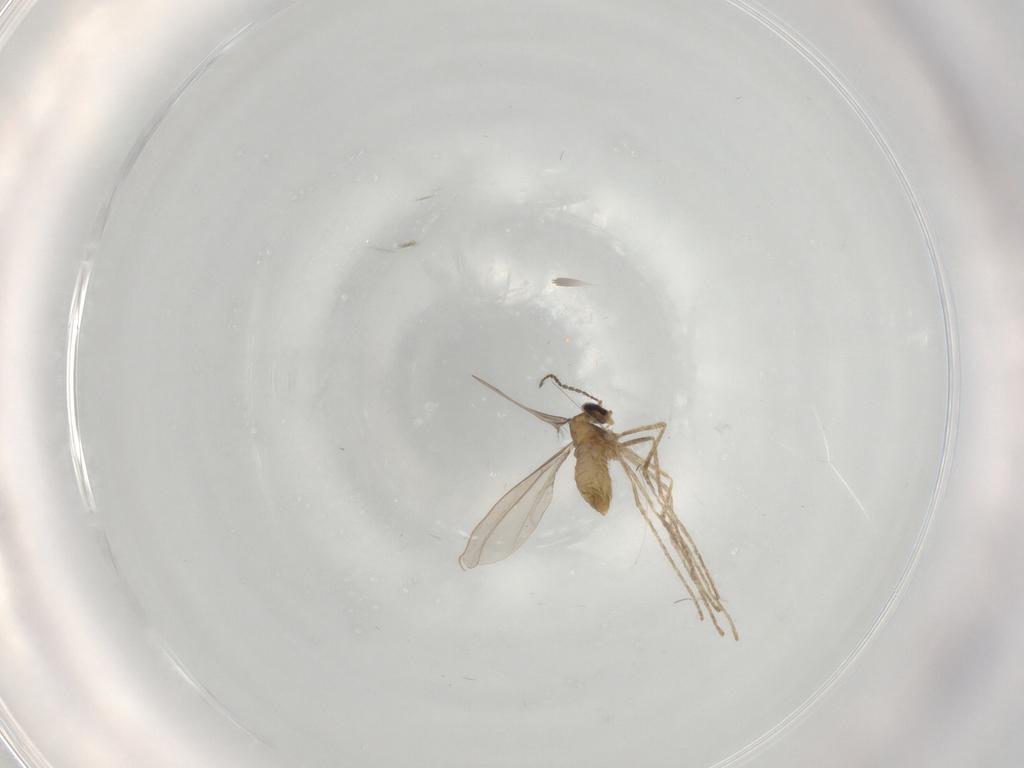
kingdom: Animalia
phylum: Arthropoda
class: Insecta
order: Diptera
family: Cecidomyiidae
